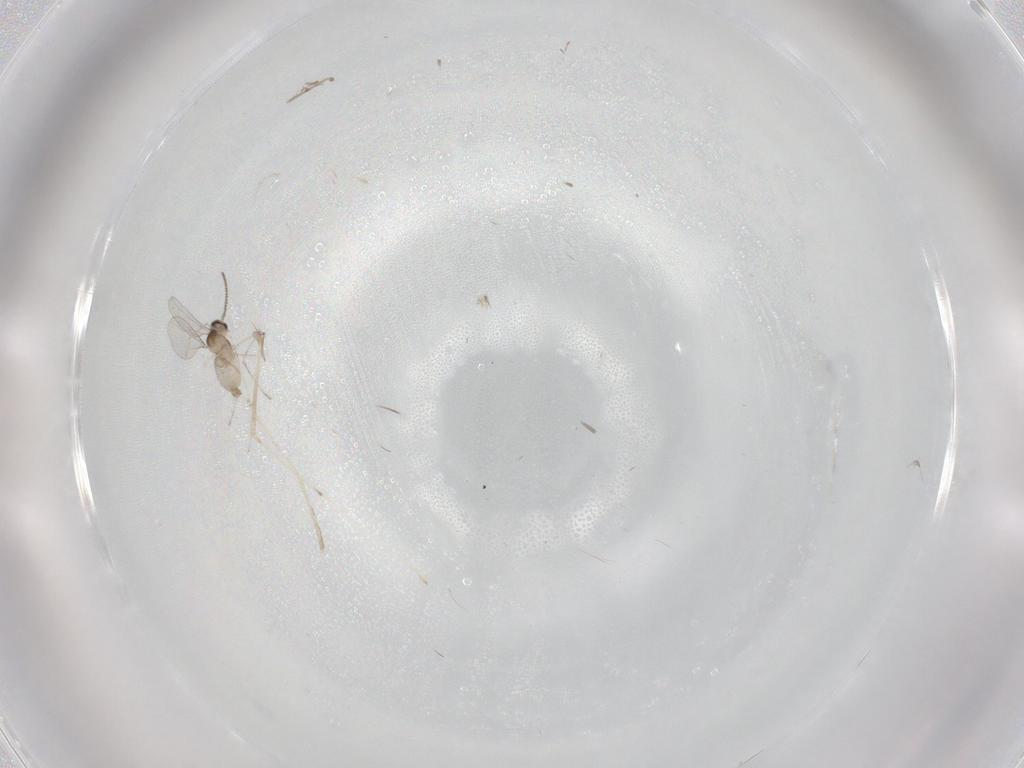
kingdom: Animalia
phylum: Arthropoda
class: Insecta
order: Diptera
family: Cecidomyiidae
